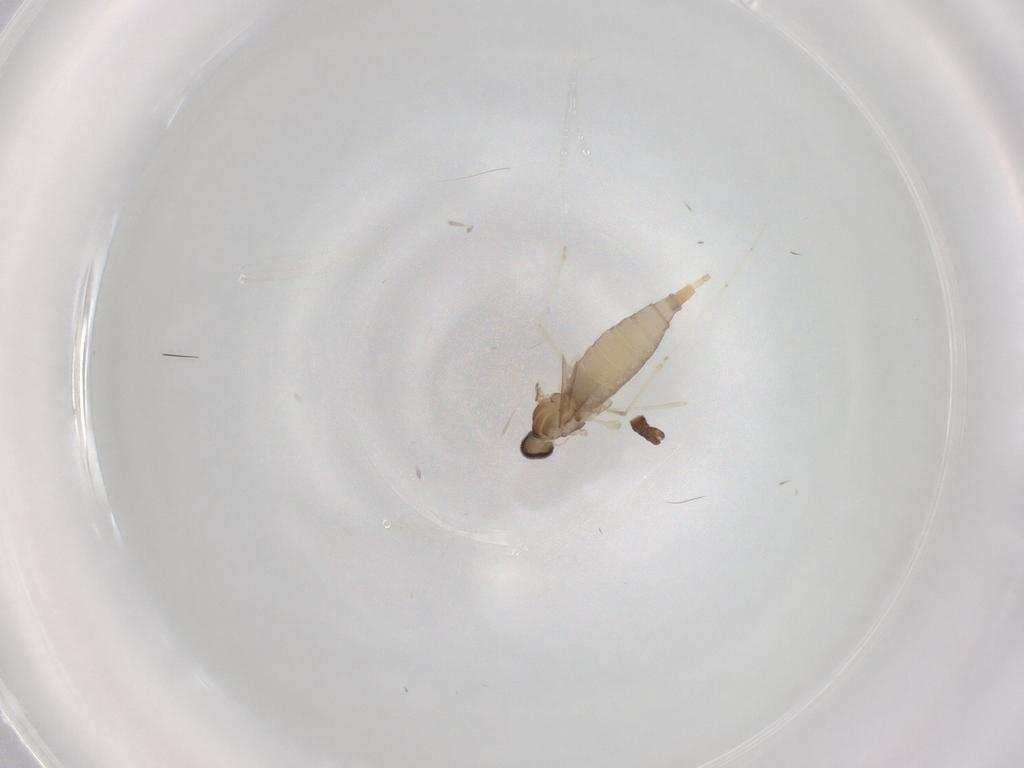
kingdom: Animalia
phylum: Arthropoda
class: Insecta
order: Diptera
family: Cecidomyiidae
